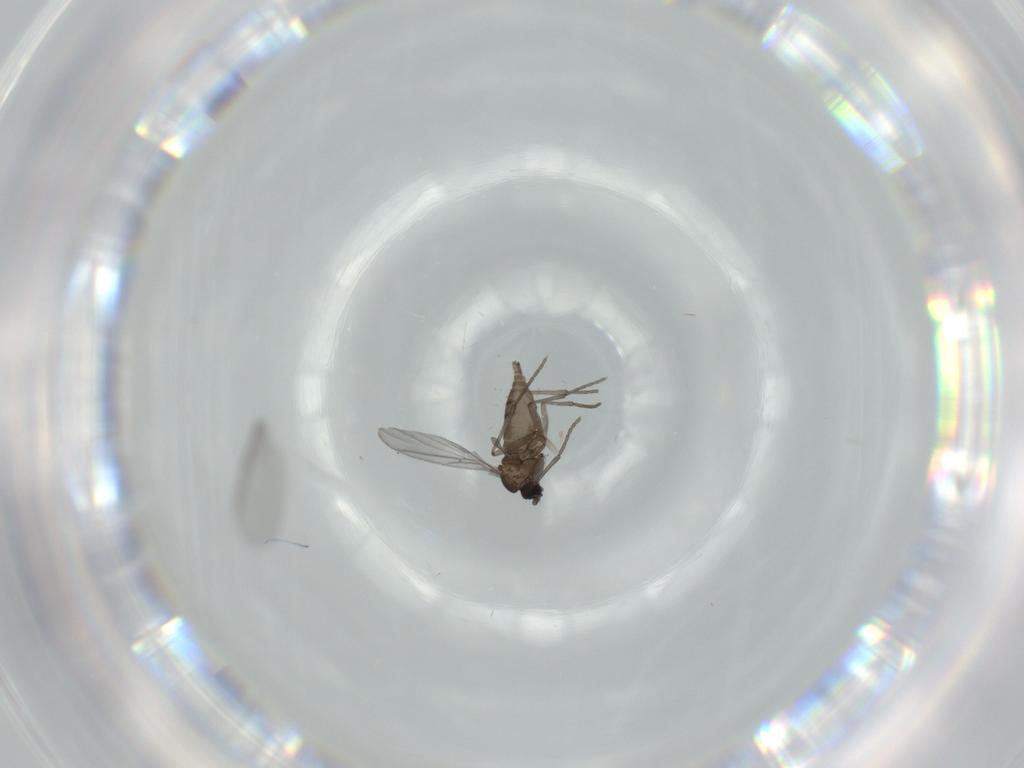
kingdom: Animalia
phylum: Arthropoda
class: Insecta
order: Diptera
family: Sciaridae
